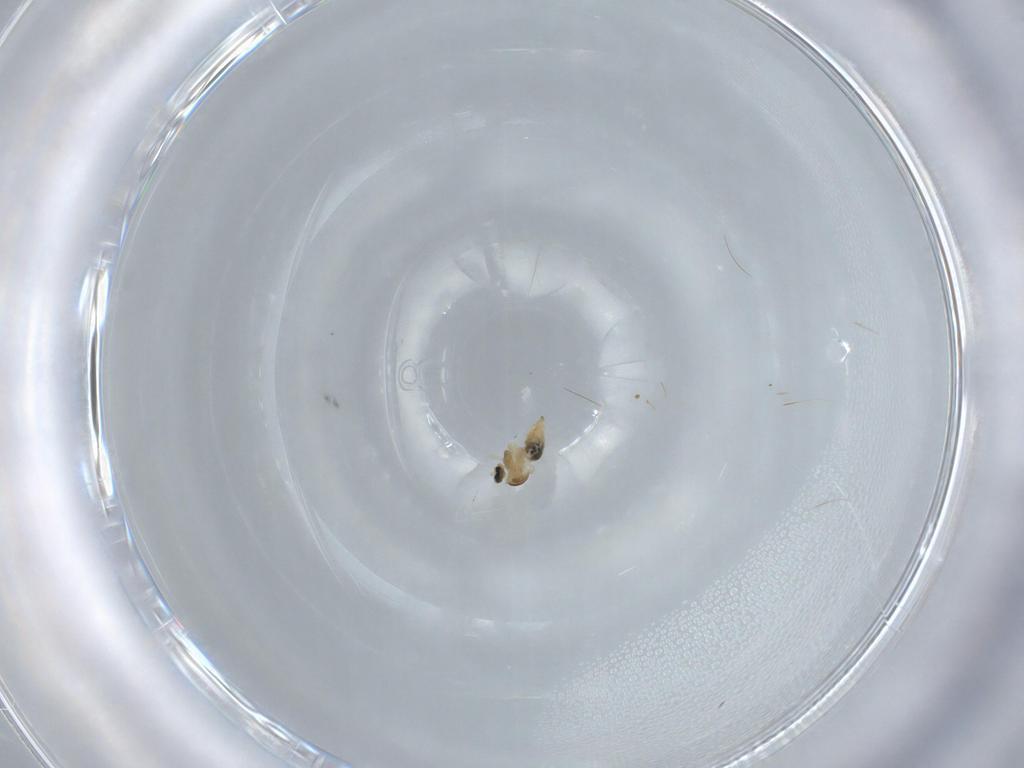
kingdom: Animalia
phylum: Arthropoda
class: Insecta
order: Diptera
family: Cecidomyiidae
